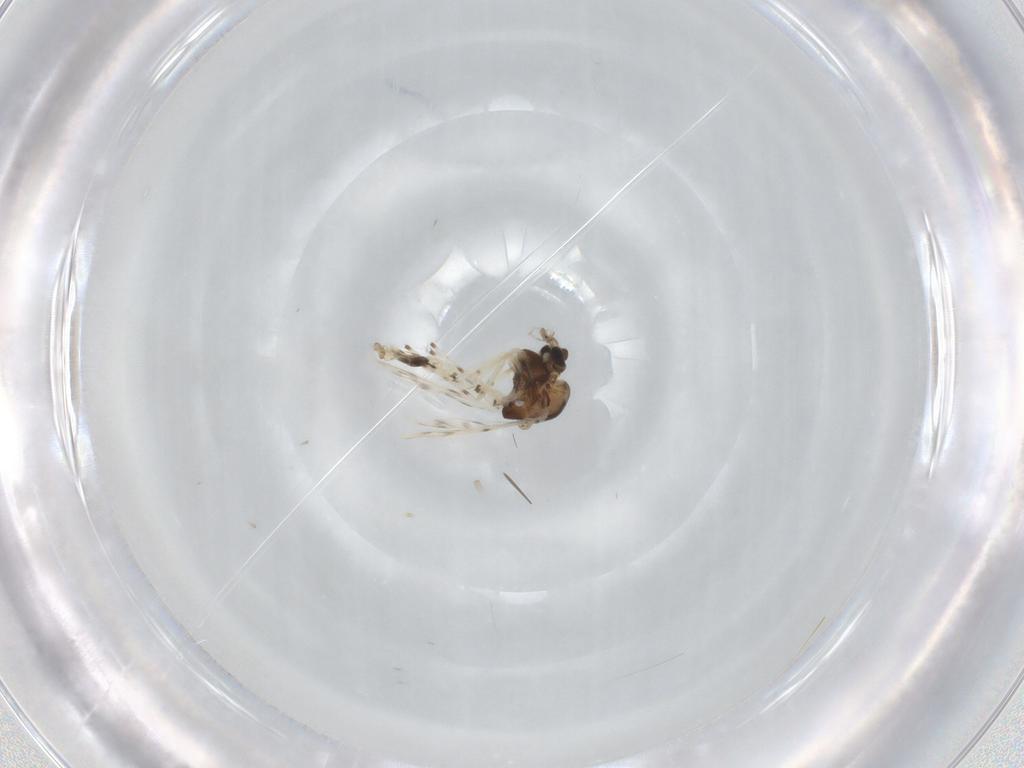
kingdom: Animalia
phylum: Arthropoda
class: Insecta
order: Diptera
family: Chironomidae
